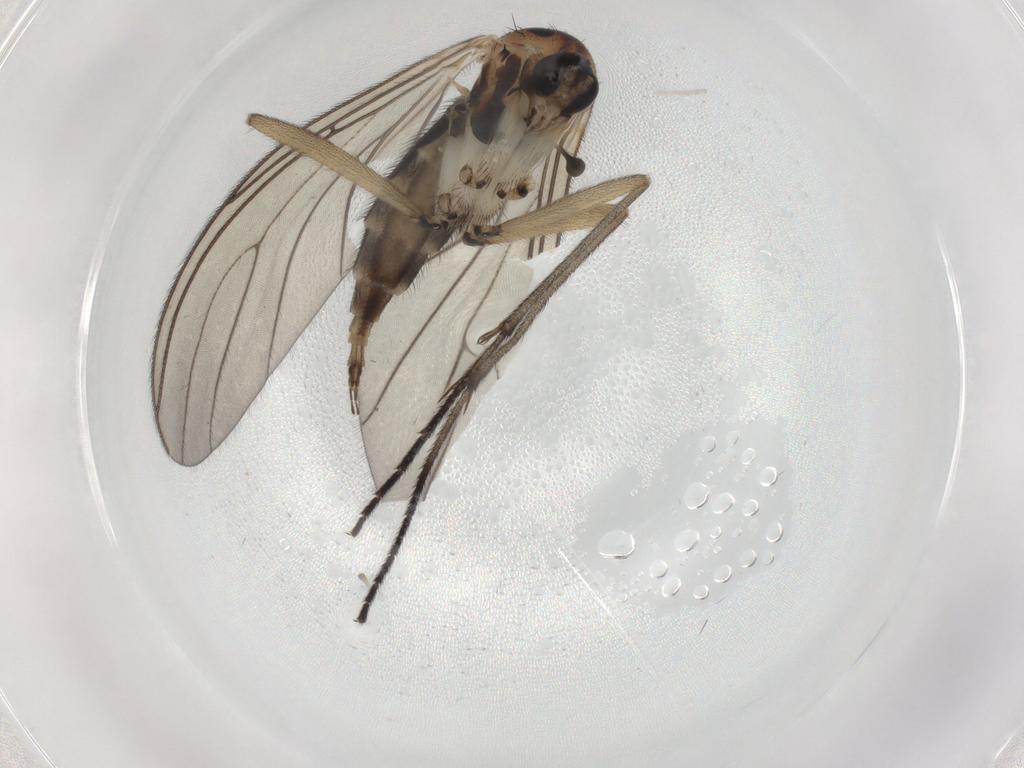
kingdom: Animalia
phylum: Arthropoda
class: Insecta
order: Diptera
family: Sciaridae
